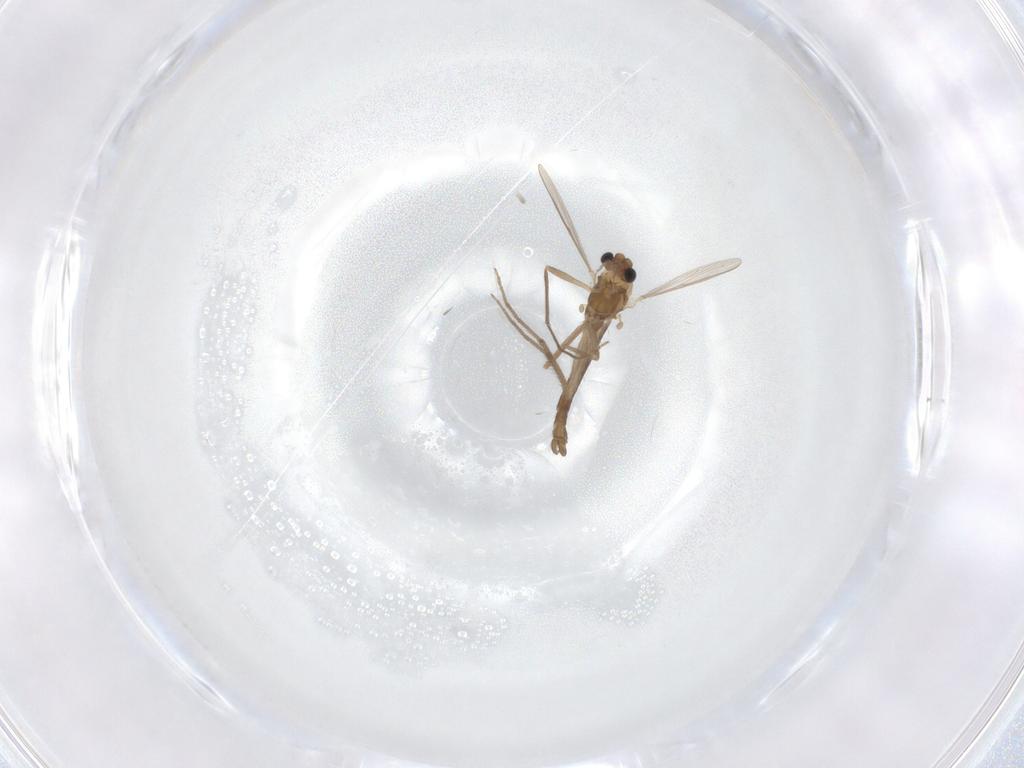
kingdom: Animalia
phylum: Arthropoda
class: Insecta
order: Diptera
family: Chironomidae
